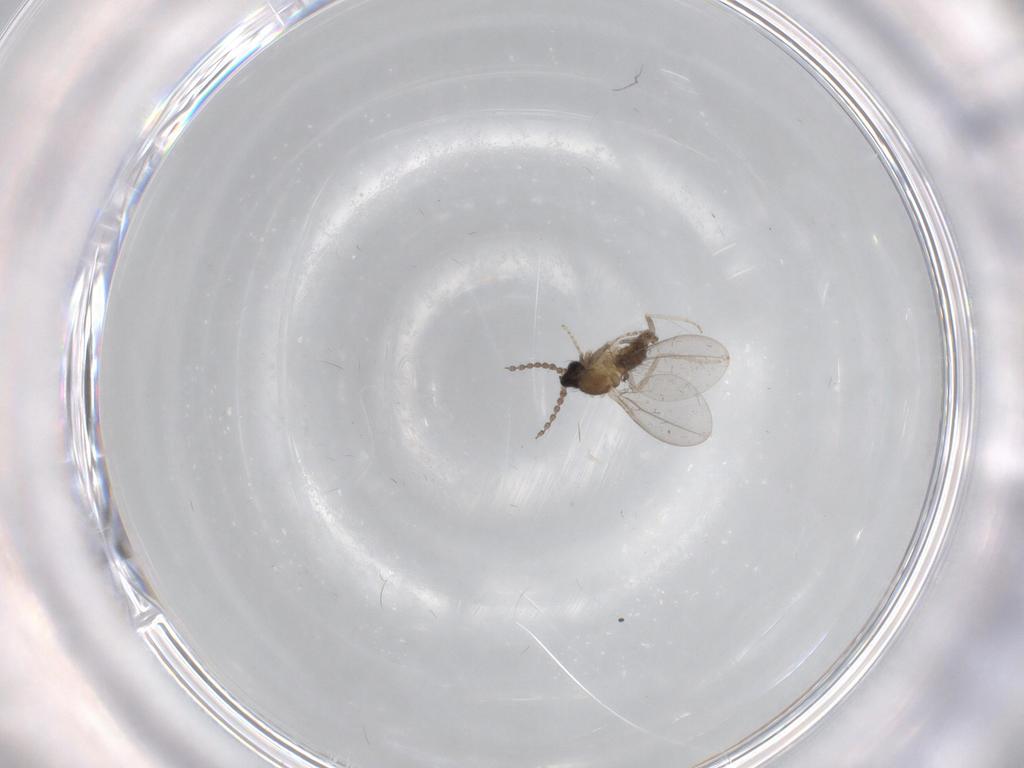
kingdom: Animalia
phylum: Arthropoda
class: Insecta
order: Diptera
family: Limoniidae
